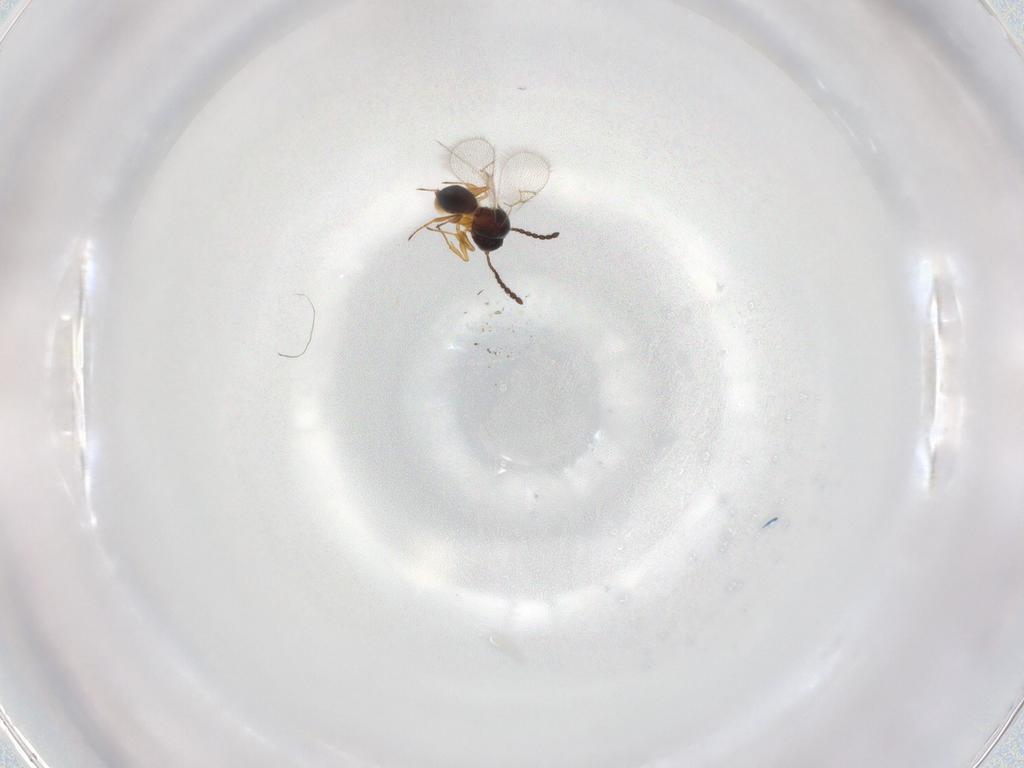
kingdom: Animalia
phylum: Arthropoda
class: Insecta
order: Hymenoptera
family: Figitidae
